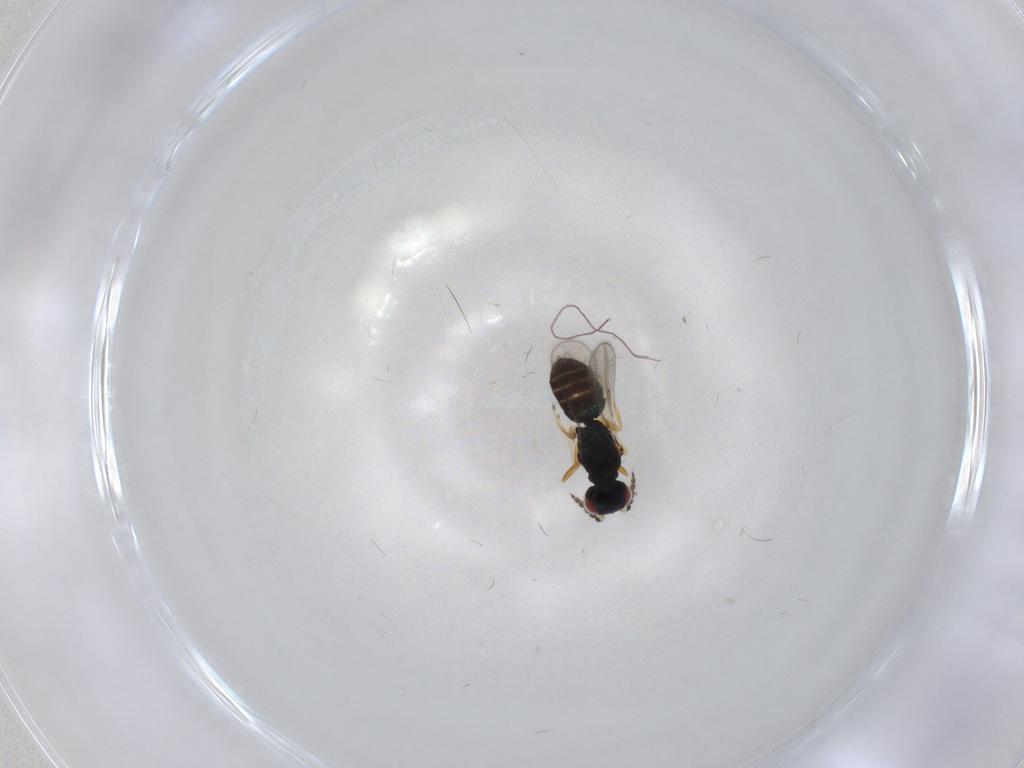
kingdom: Animalia
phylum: Arthropoda
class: Insecta
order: Hymenoptera
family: Eulophidae
